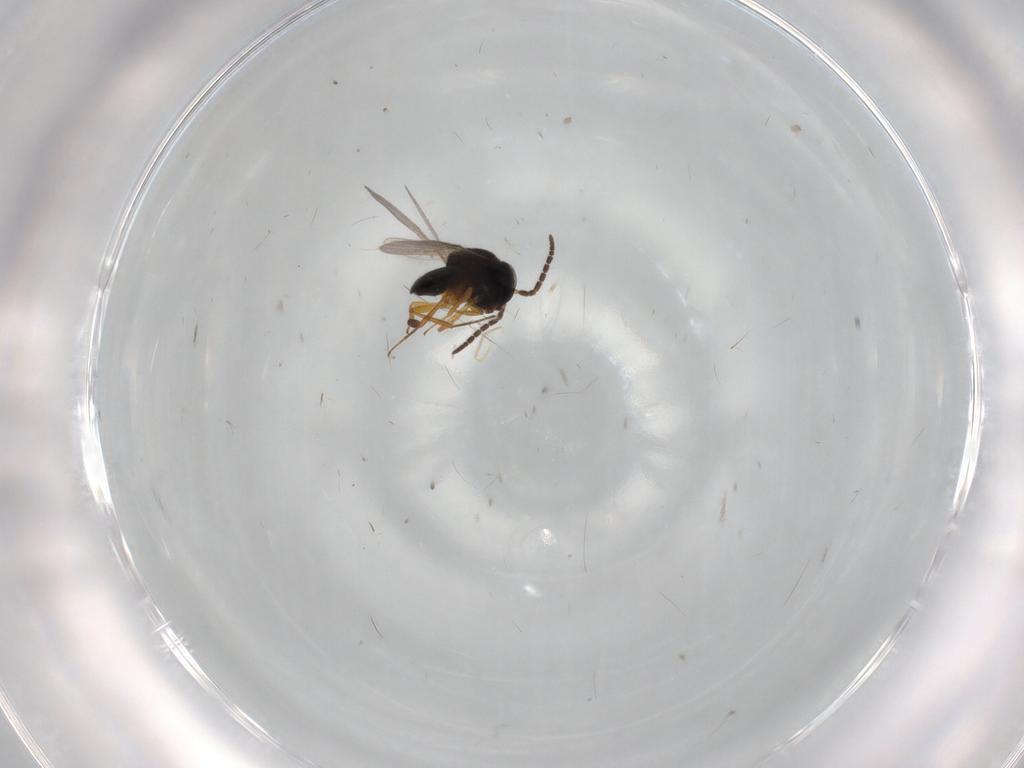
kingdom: Animalia
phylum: Arthropoda
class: Insecta
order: Coleoptera
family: Curculionidae
